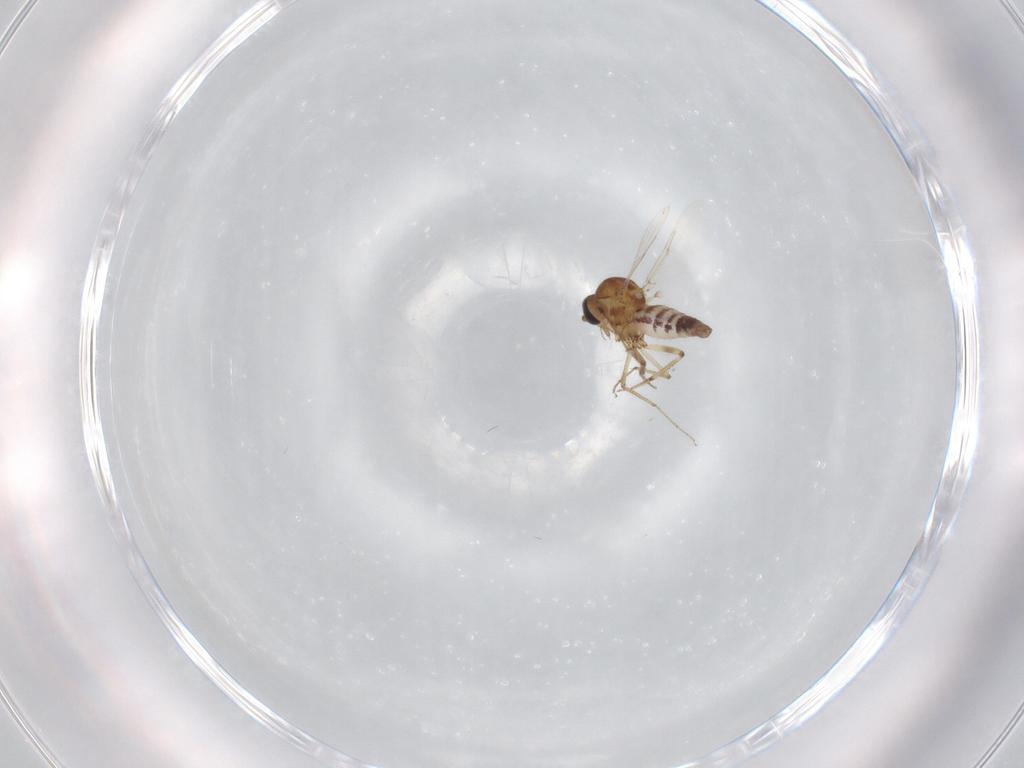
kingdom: Animalia
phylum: Arthropoda
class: Insecta
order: Diptera
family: Ceratopogonidae
